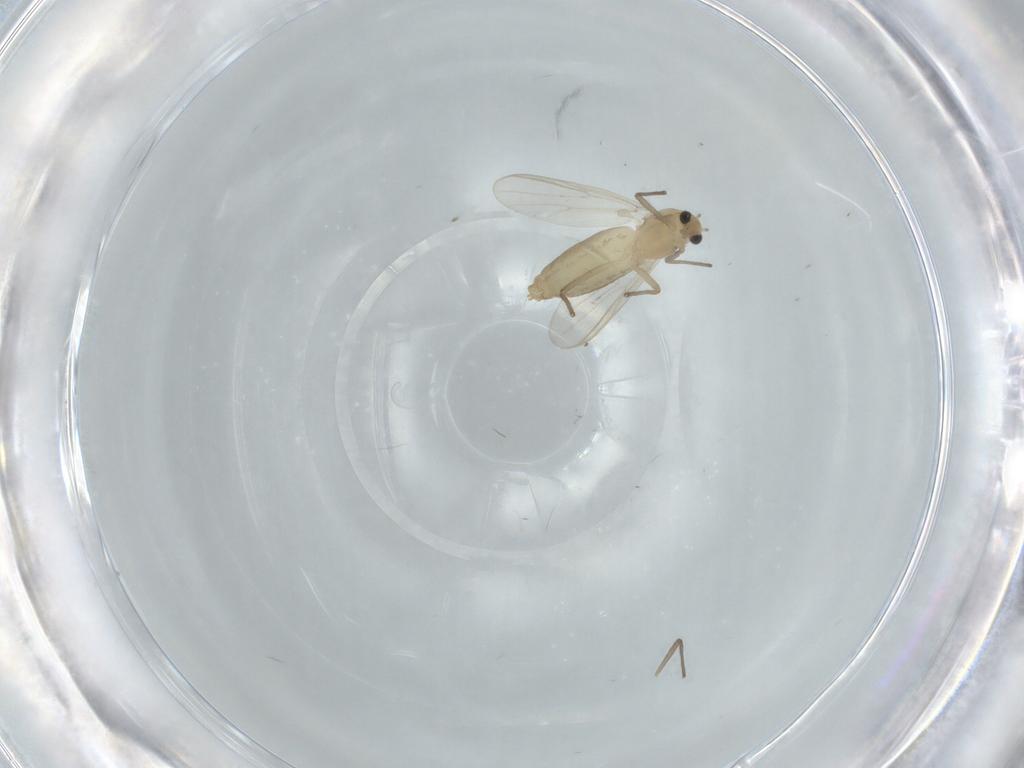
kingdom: Animalia
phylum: Arthropoda
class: Insecta
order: Diptera
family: Chironomidae
